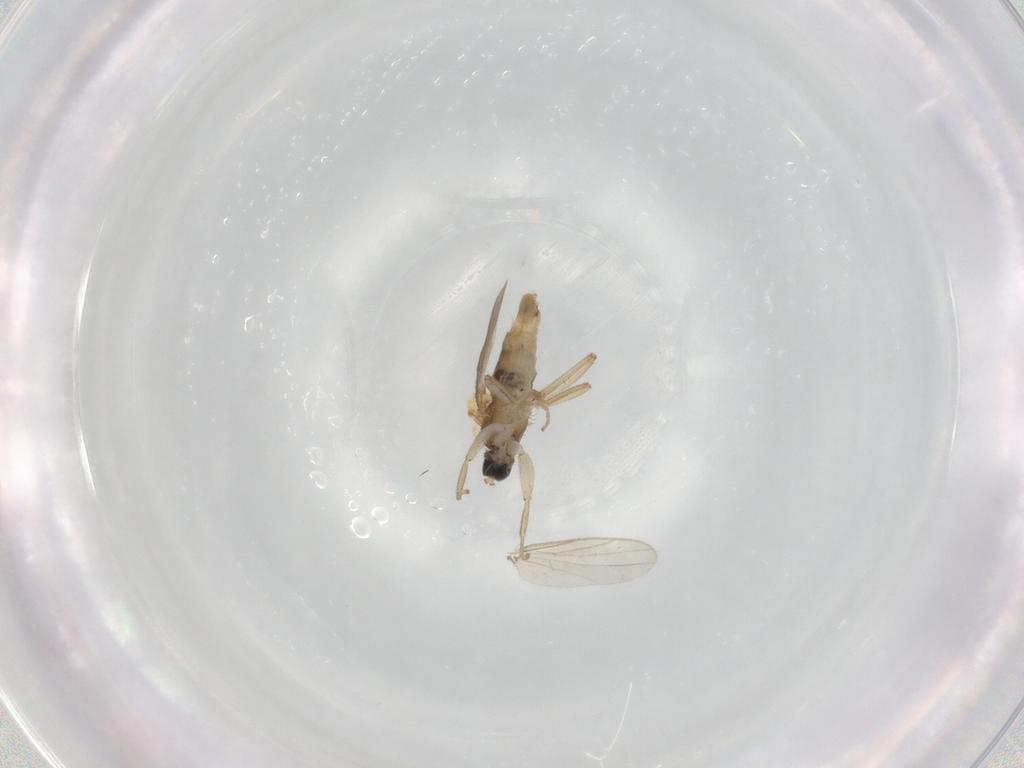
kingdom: Animalia
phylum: Arthropoda
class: Insecta
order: Diptera
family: Hybotidae
